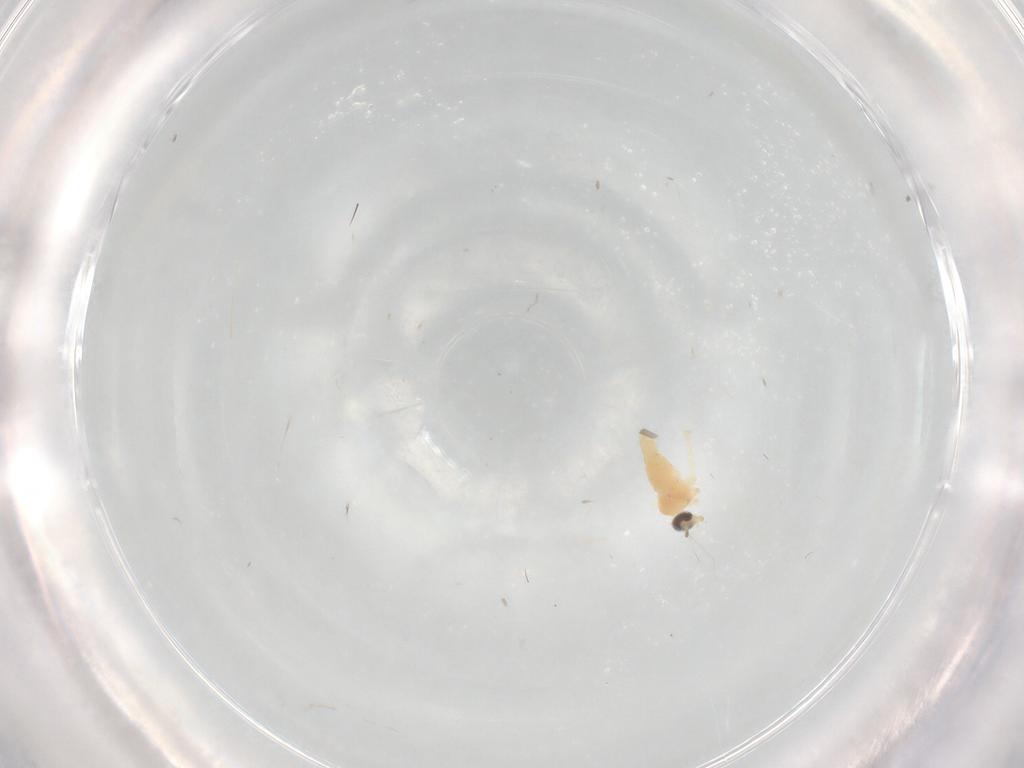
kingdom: Animalia
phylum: Arthropoda
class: Insecta
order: Diptera
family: Cecidomyiidae
